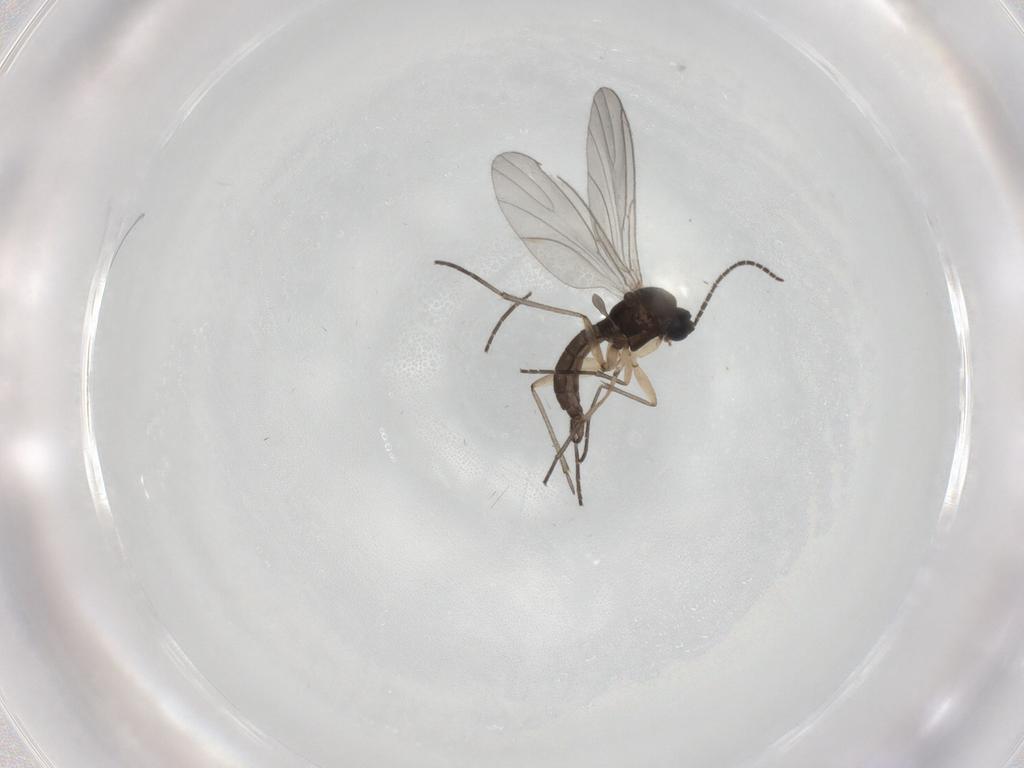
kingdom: Animalia
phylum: Arthropoda
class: Insecta
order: Diptera
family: Sciaridae
